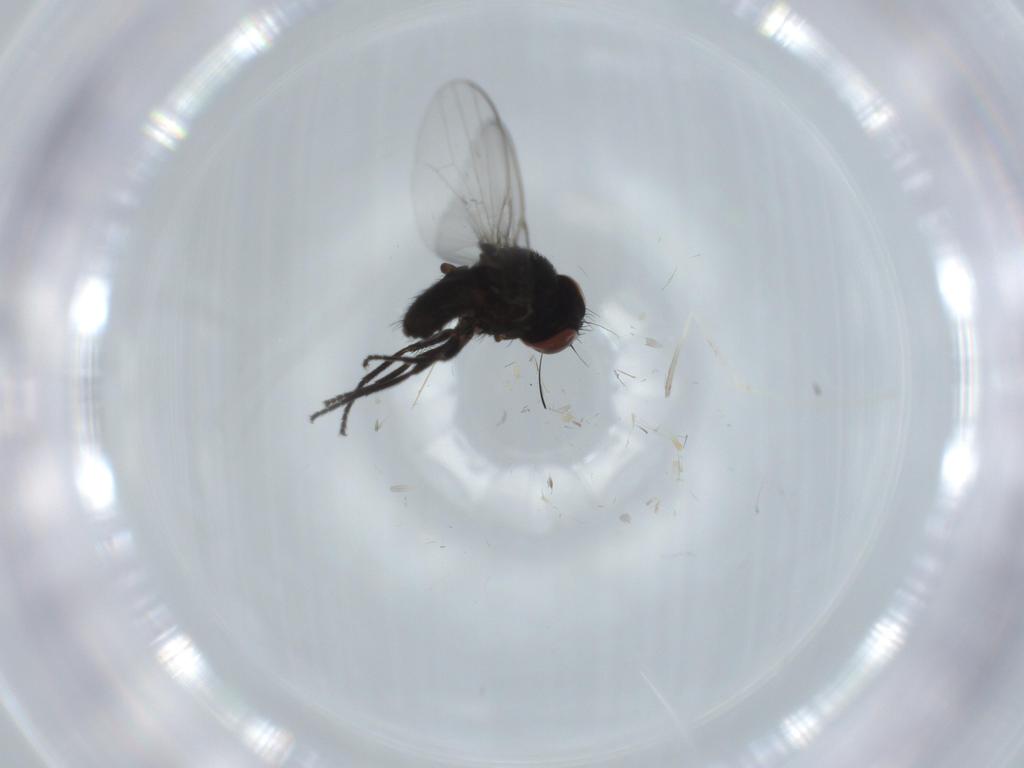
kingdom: Animalia
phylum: Arthropoda
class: Insecta
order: Diptera
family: Cecidomyiidae
